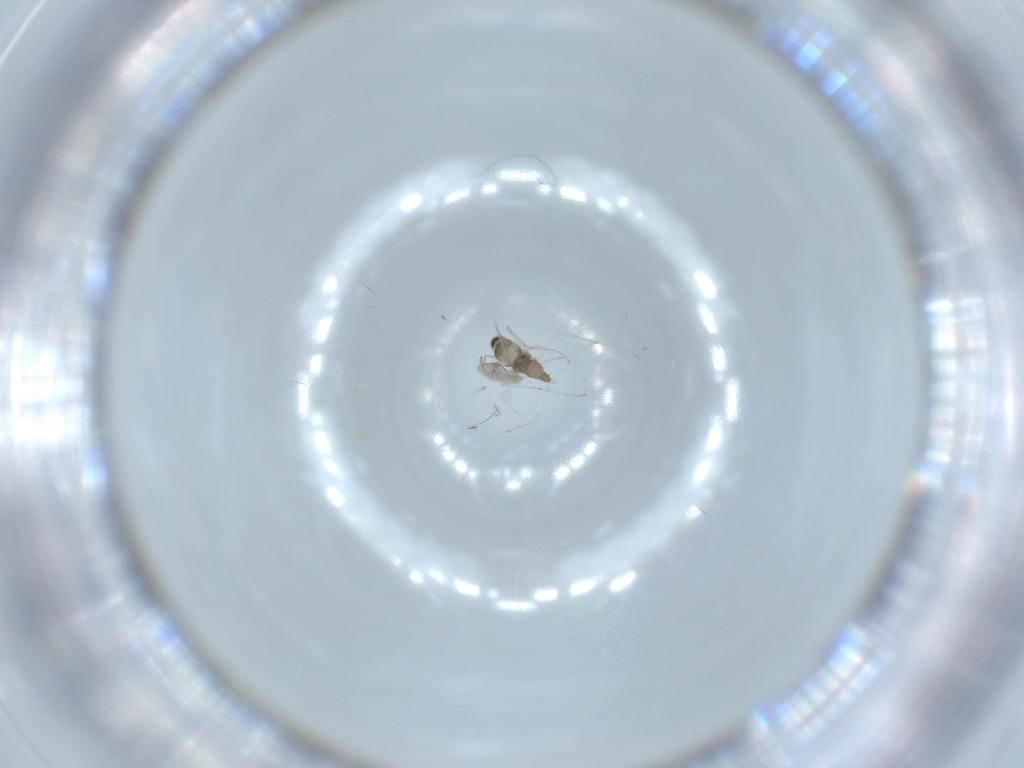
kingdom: Animalia
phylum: Arthropoda
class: Insecta
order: Diptera
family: Cecidomyiidae
